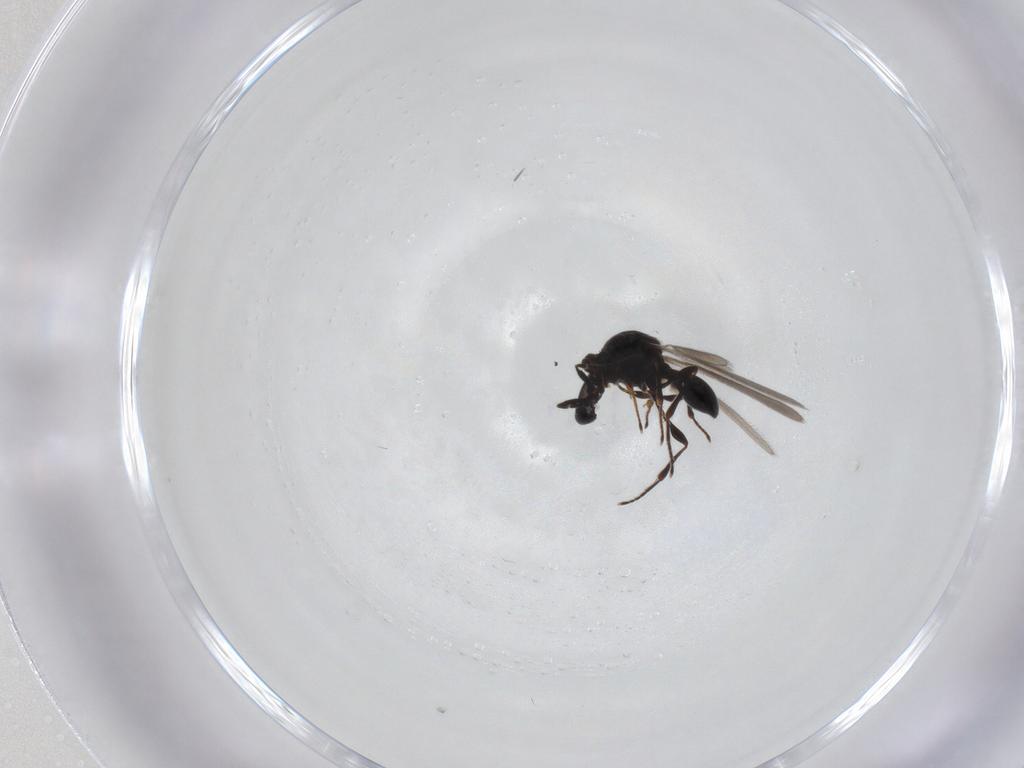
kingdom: Animalia
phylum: Arthropoda
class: Insecta
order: Hymenoptera
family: Platygastridae
